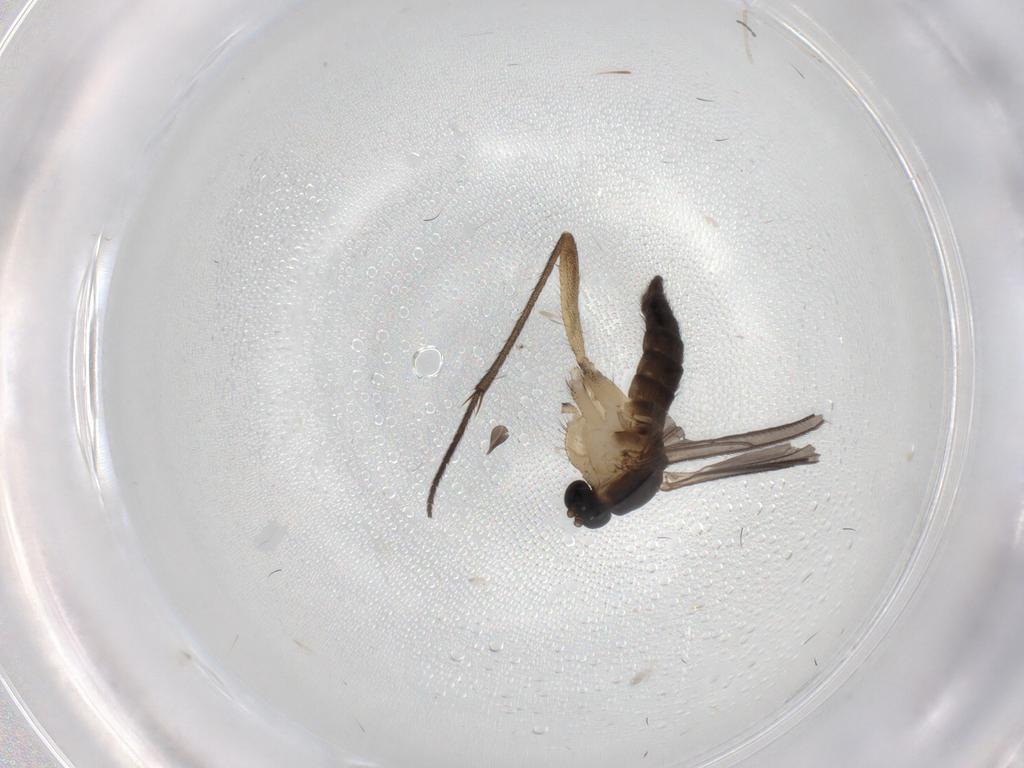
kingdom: Animalia
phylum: Arthropoda
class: Insecta
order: Diptera
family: Sciaridae
